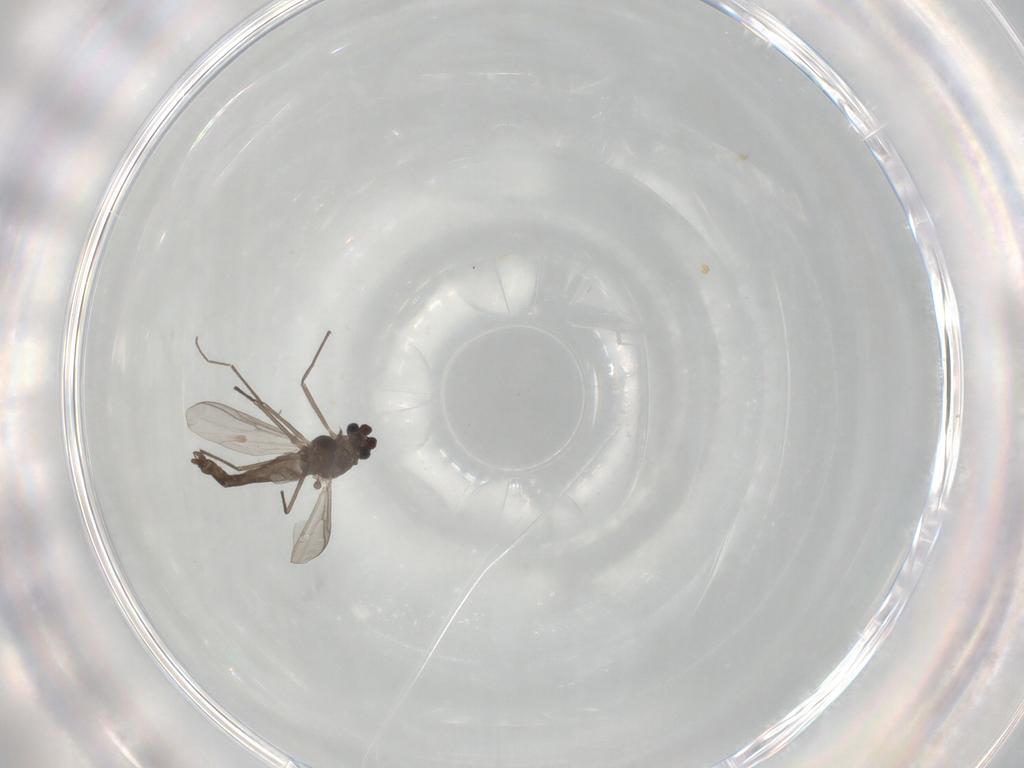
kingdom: Animalia
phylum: Arthropoda
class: Insecta
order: Diptera
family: Chironomidae
